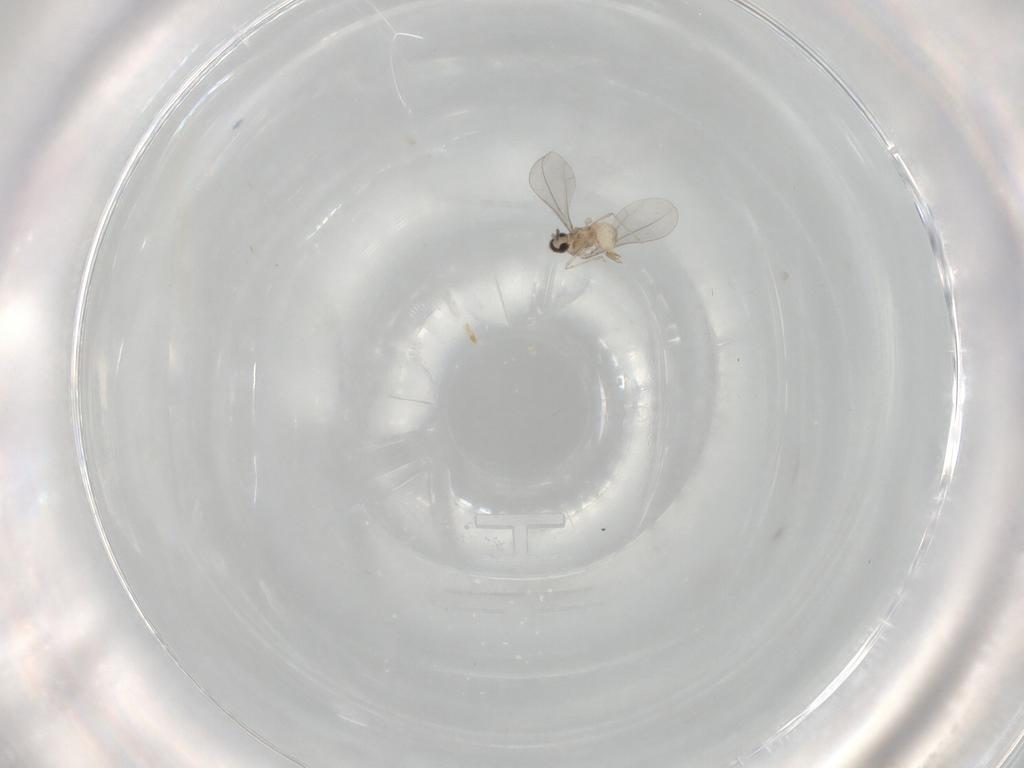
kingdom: Animalia
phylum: Arthropoda
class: Insecta
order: Diptera
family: Cecidomyiidae
